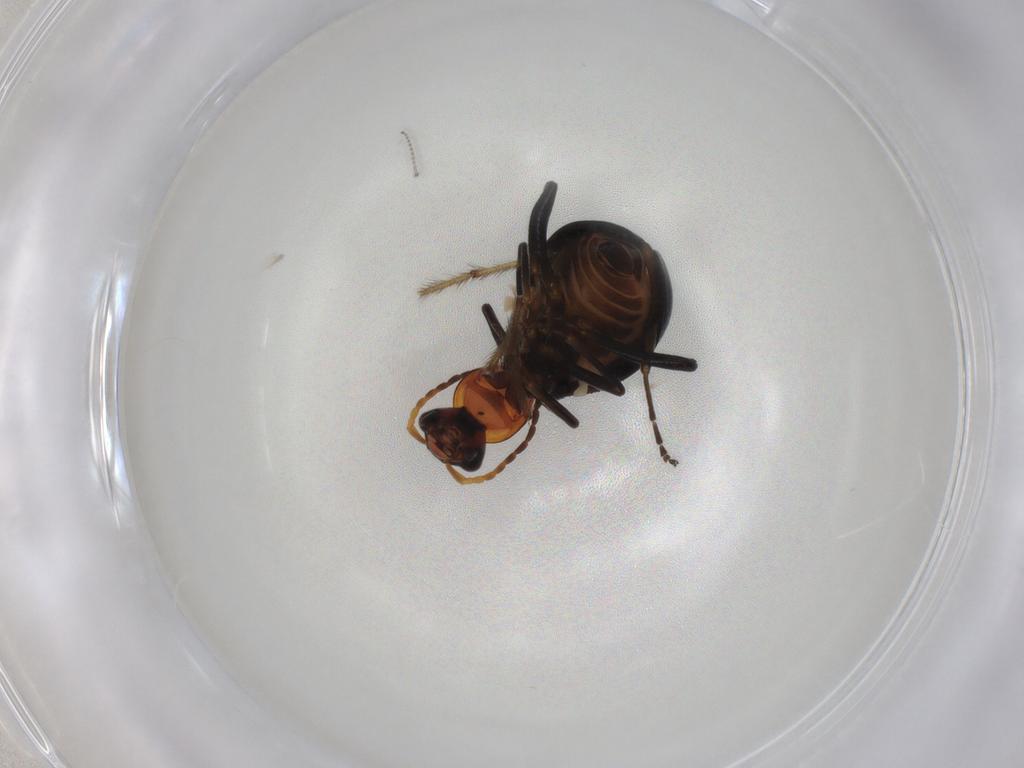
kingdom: Animalia
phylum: Arthropoda
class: Insecta
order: Coleoptera
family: Melyridae
